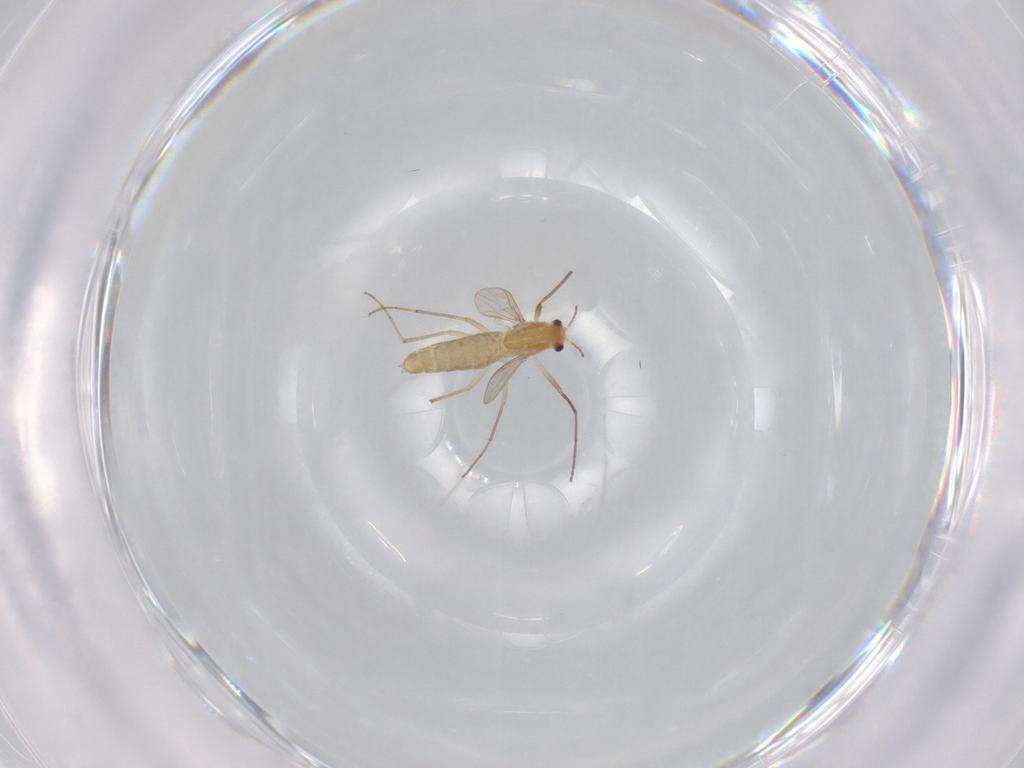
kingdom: Animalia
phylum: Arthropoda
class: Insecta
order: Diptera
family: Chironomidae
